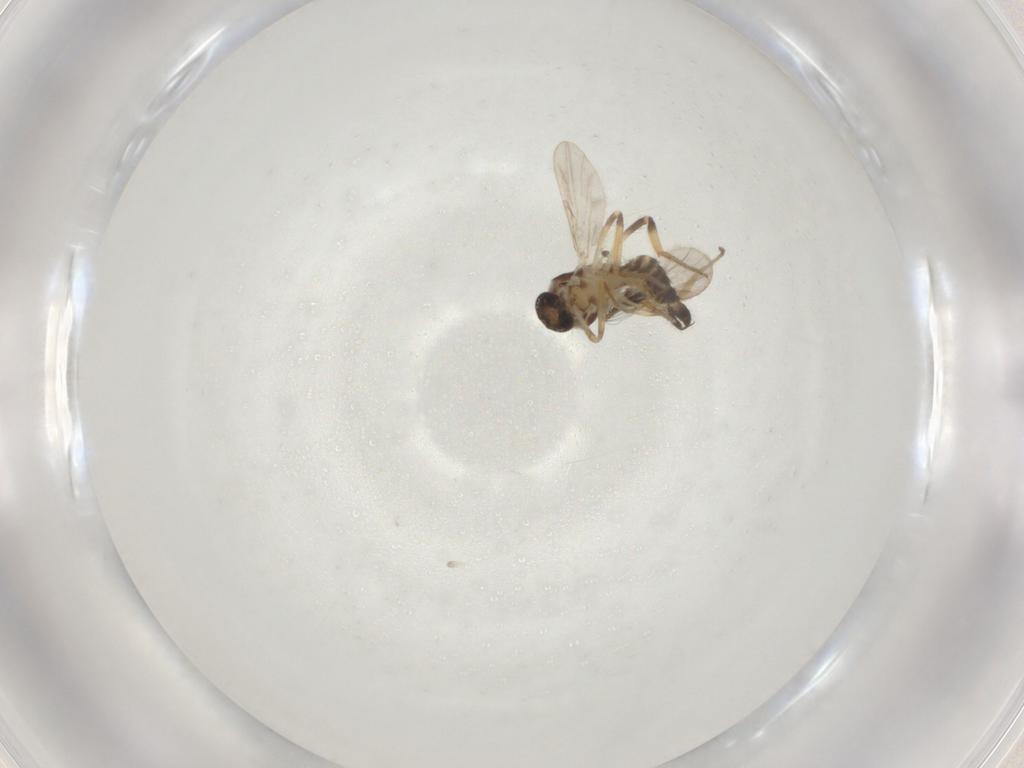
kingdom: Animalia
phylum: Arthropoda
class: Insecta
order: Diptera
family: Ceratopogonidae
